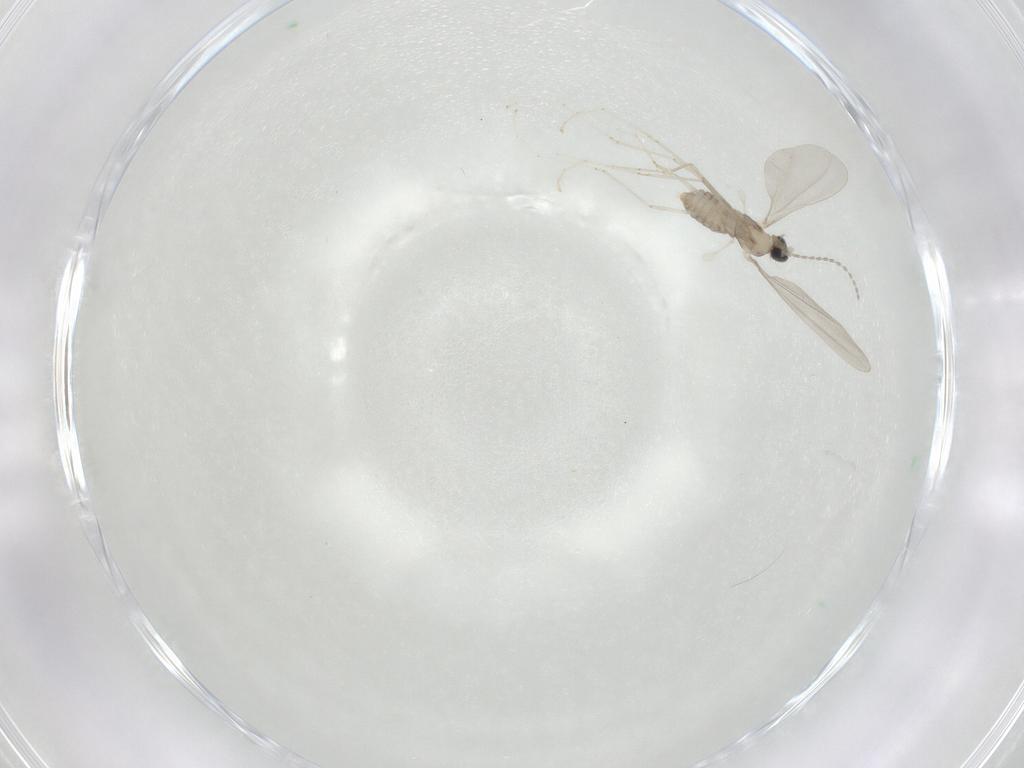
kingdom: Animalia
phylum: Arthropoda
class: Insecta
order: Diptera
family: Cecidomyiidae
